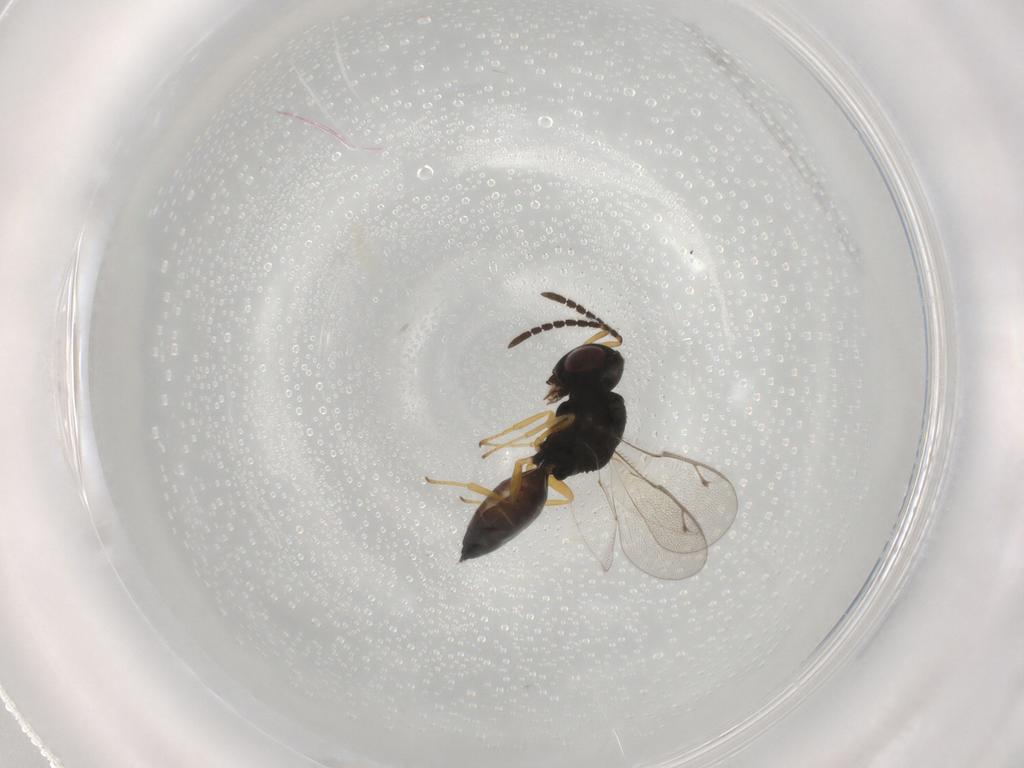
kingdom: Animalia
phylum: Arthropoda
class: Insecta
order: Hymenoptera
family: Pteromalidae
